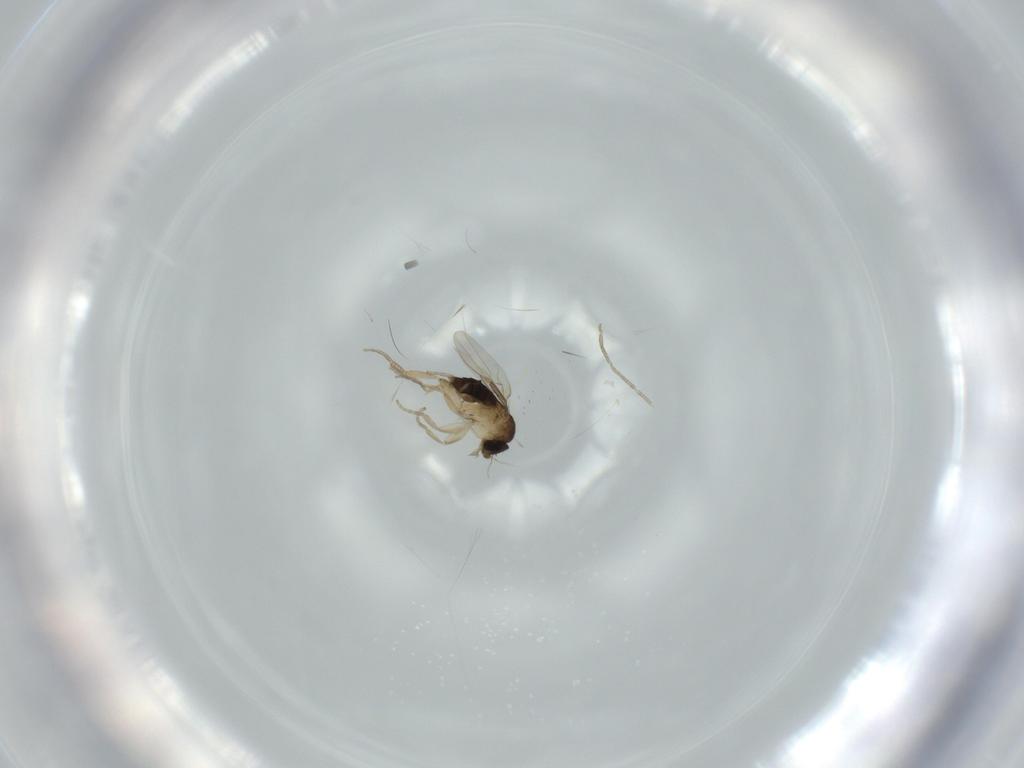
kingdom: Animalia
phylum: Arthropoda
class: Insecta
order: Diptera
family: Phoridae
